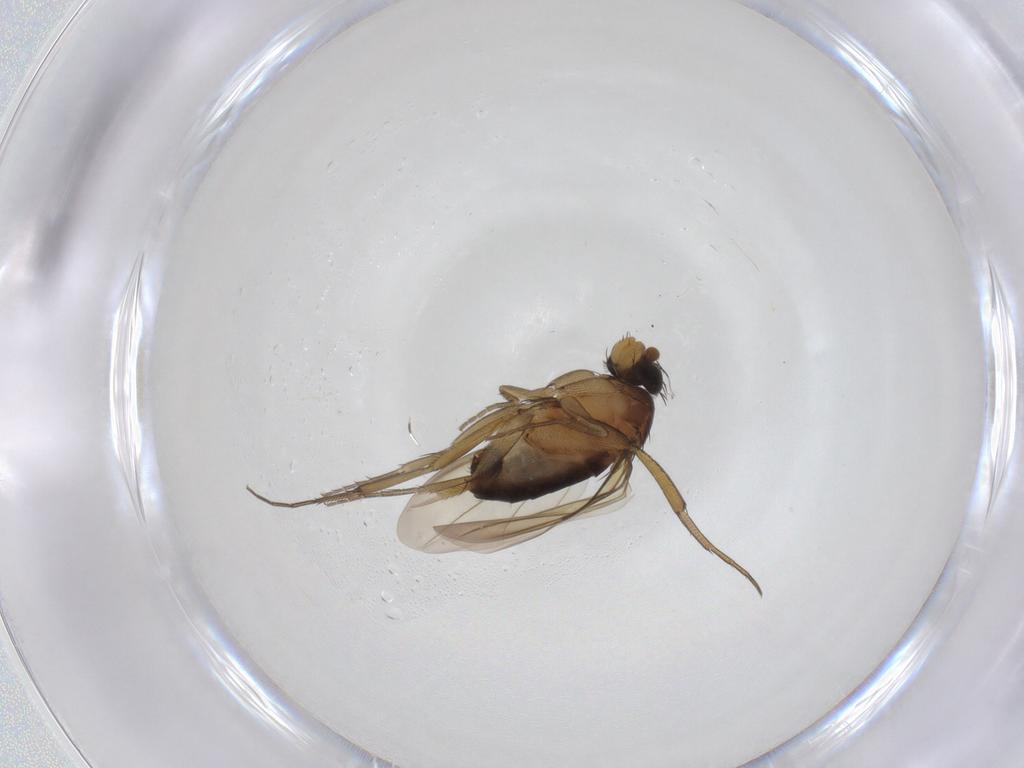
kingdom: Animalia
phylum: Arthropoda
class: Insecta
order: Diptera
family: Phoridae
